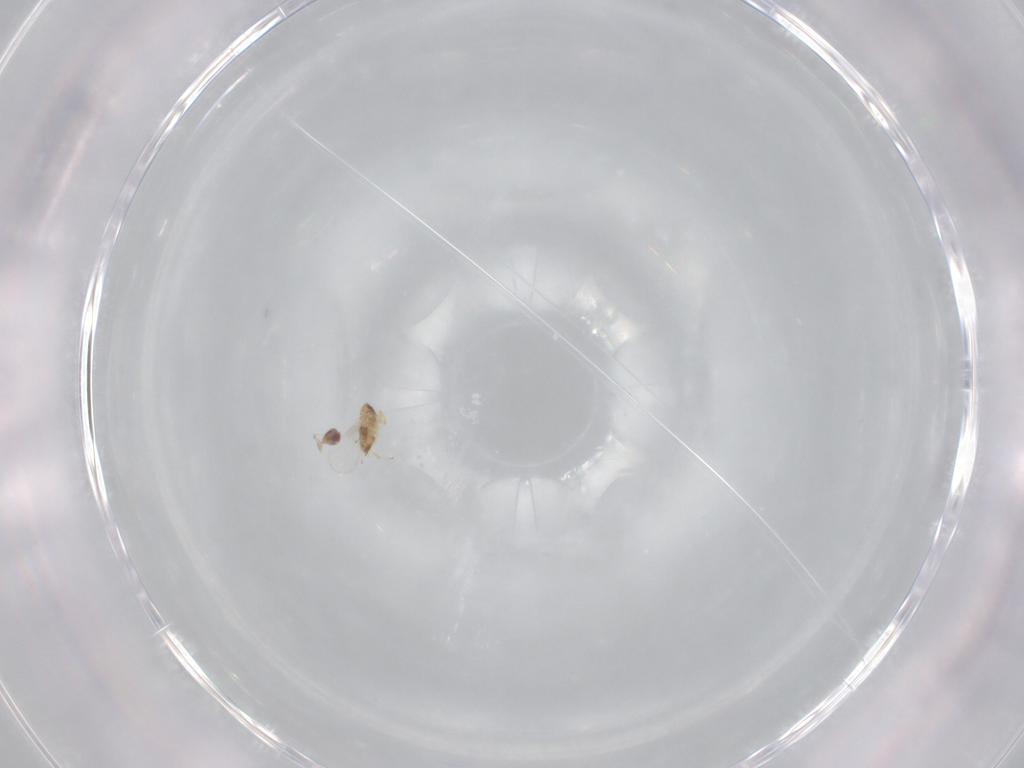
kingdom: Animalia
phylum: Arthropoda
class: Insecta
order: Hymenoptera
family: Trichogrammatidae
